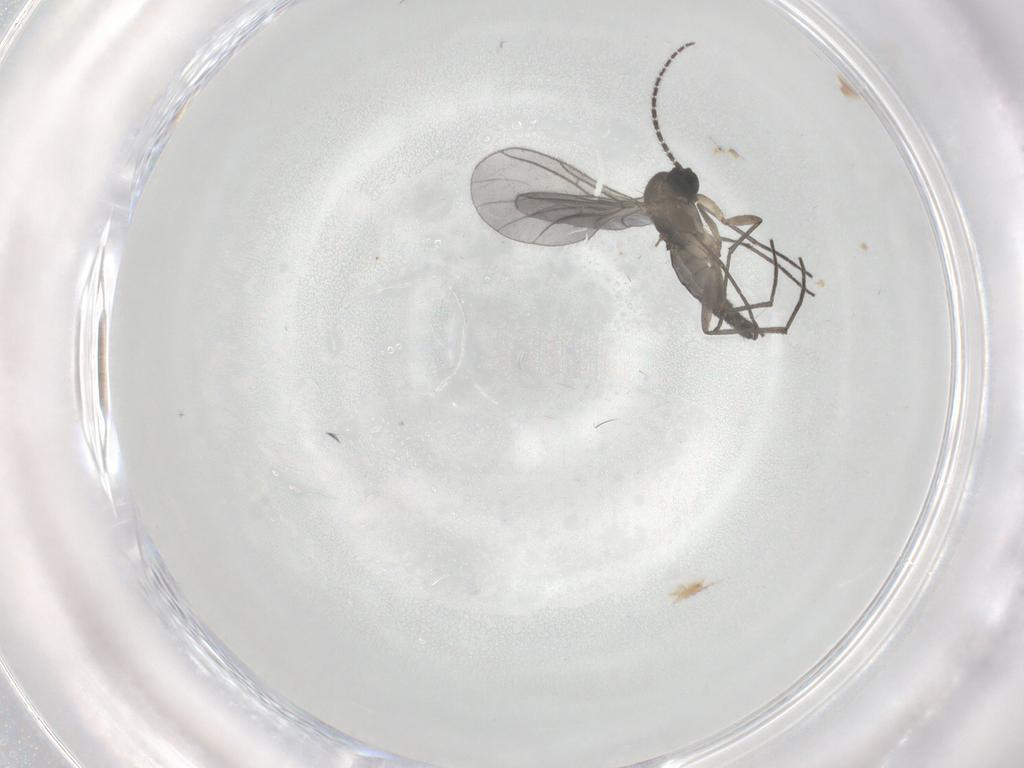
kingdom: Animalia
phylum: Arthropoda
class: Insecta
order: Diptera
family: Sciaridae
